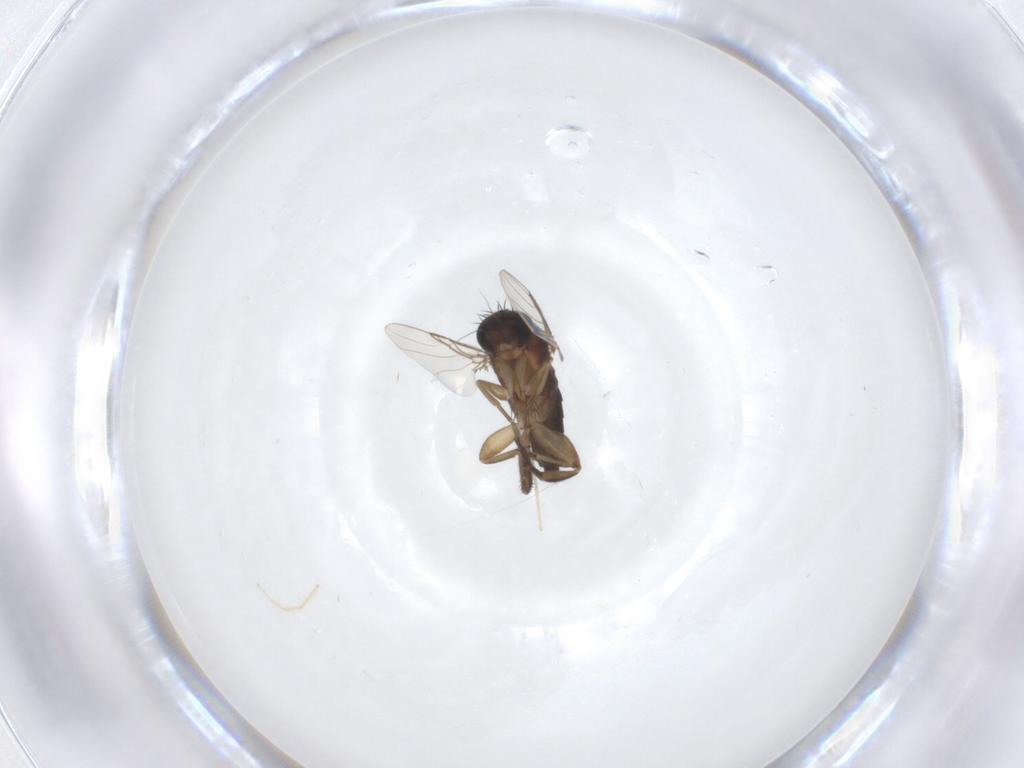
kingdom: Animalia
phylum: Arthropoda
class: Insecta
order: Diptera
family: Phoridae
